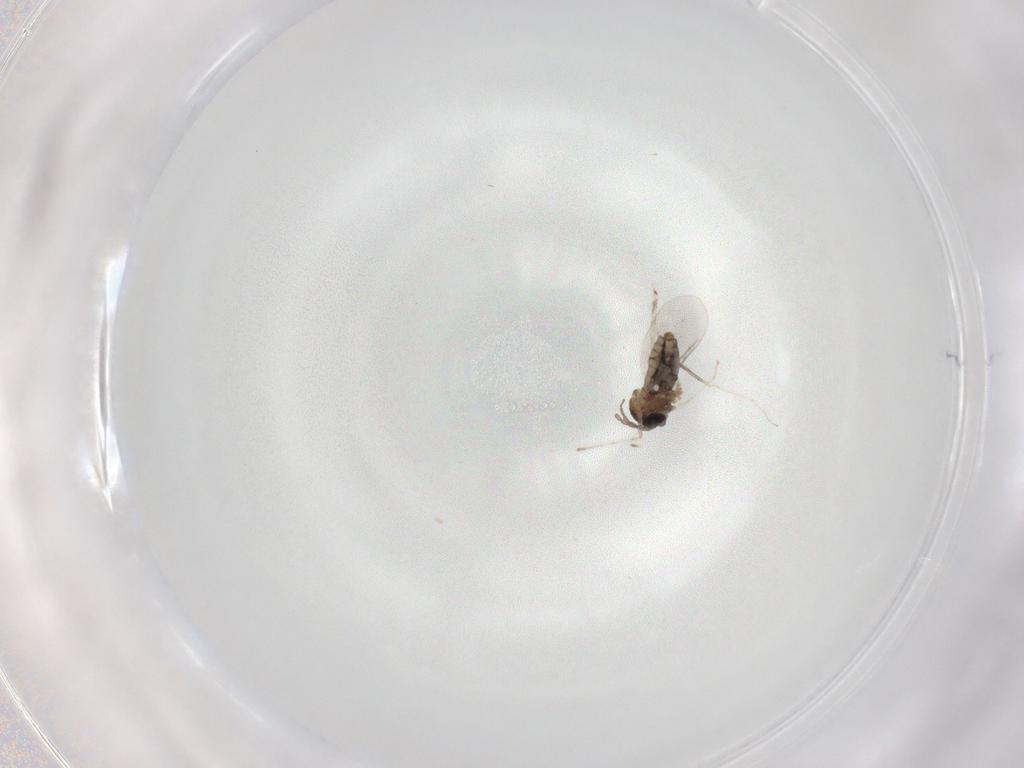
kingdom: Animalia
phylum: Arthropoda
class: Insecta
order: Diptera
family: Cecidomyiidae
